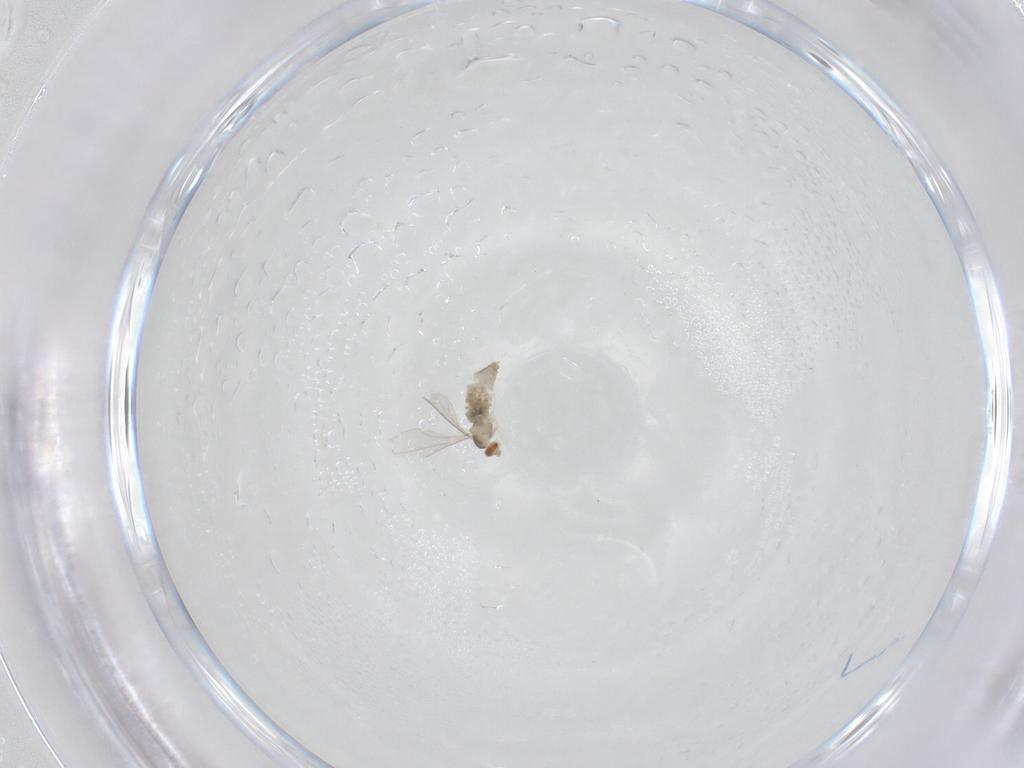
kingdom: Animalia
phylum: Arthropoda
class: Insecta
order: Diptera
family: Cecidomyiidae
